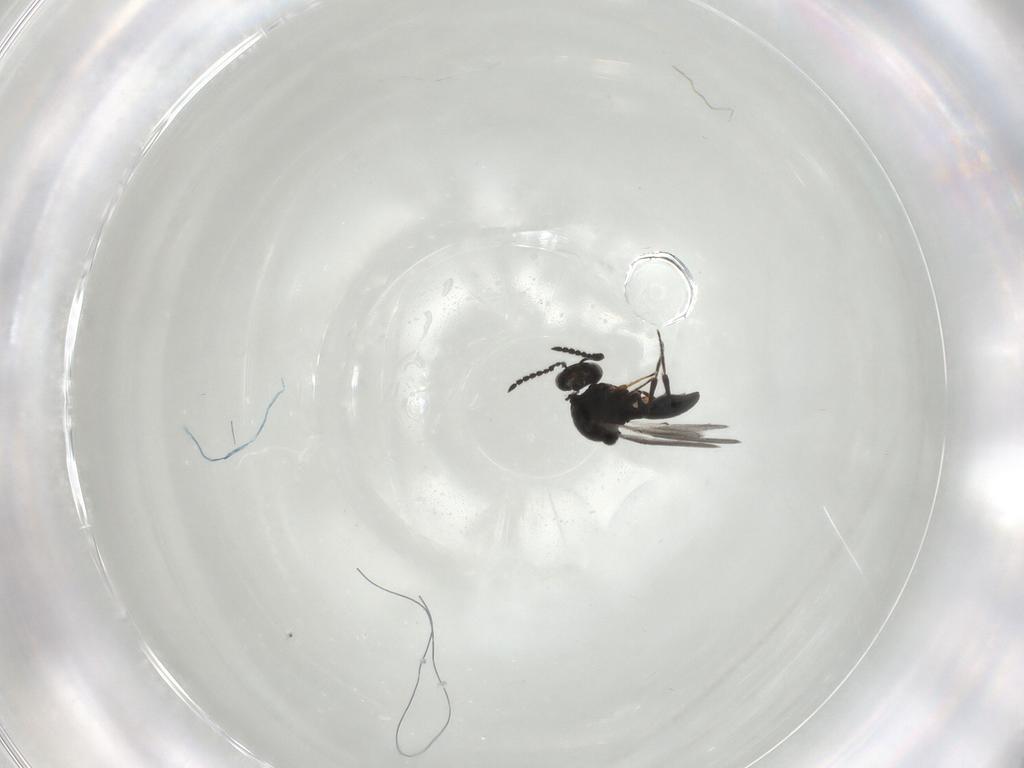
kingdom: Animalia
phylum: Arthropoda
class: Insecta
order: Hymenoptera
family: Platygastridae
